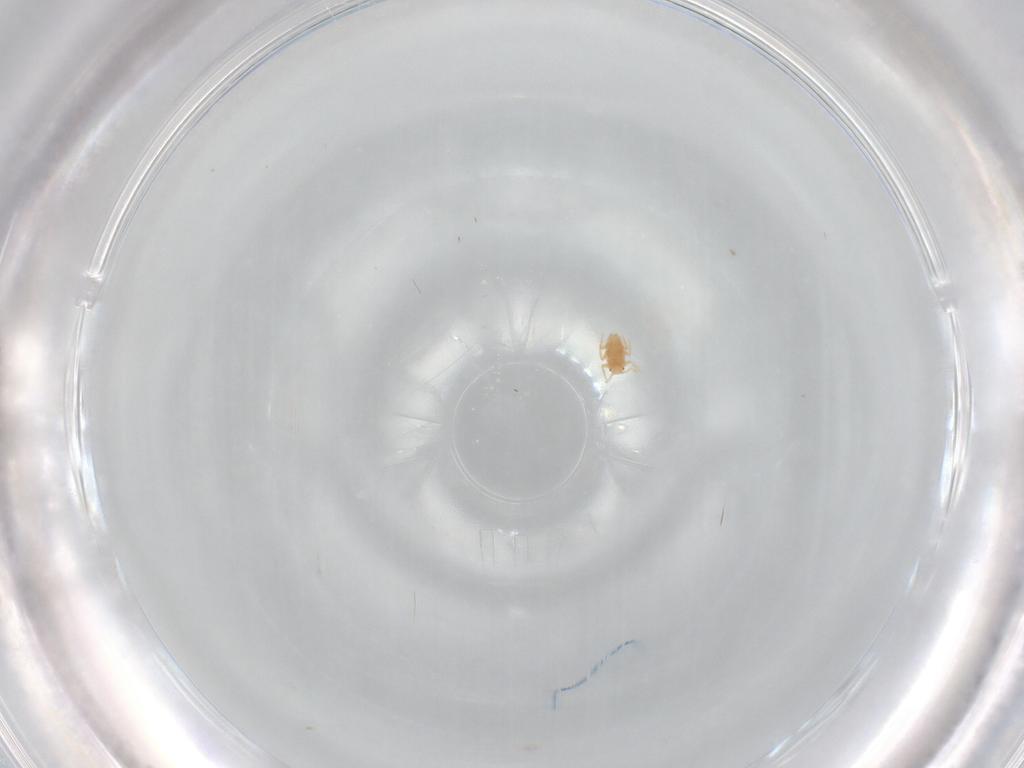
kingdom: Animalia
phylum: Arthropoda
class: Insecta
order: Hemiptera
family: Coccoidea_incertae_sedis
